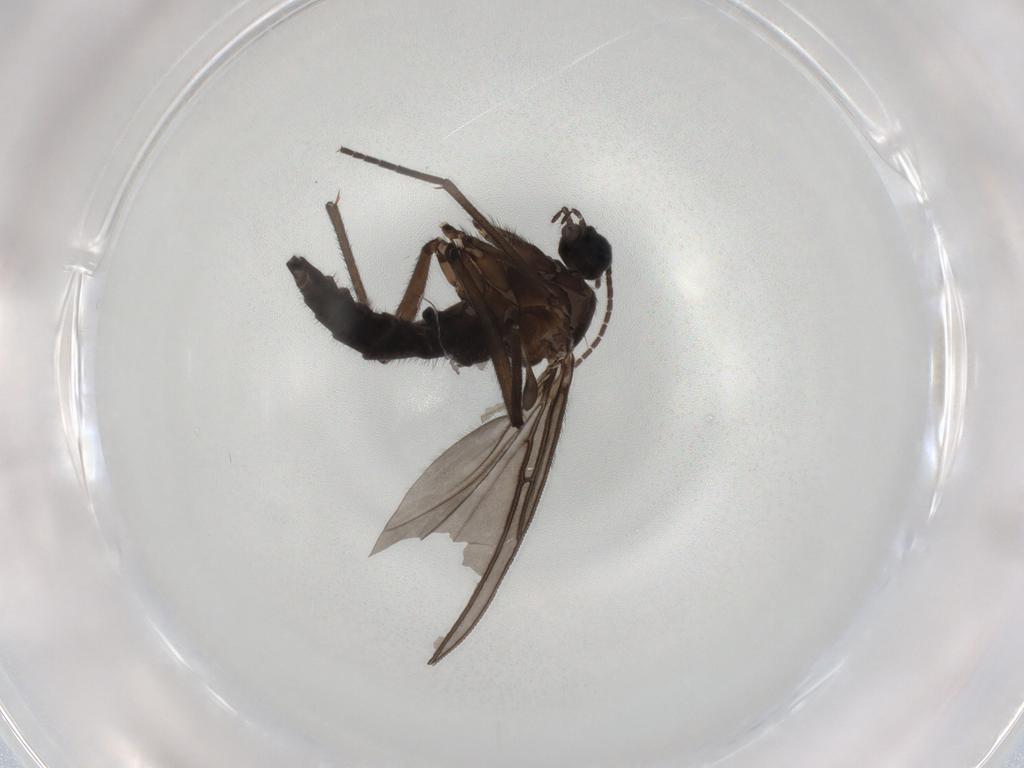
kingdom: Animalia
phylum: Arthropoda
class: Insecta
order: Diptera
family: Sciaridae
